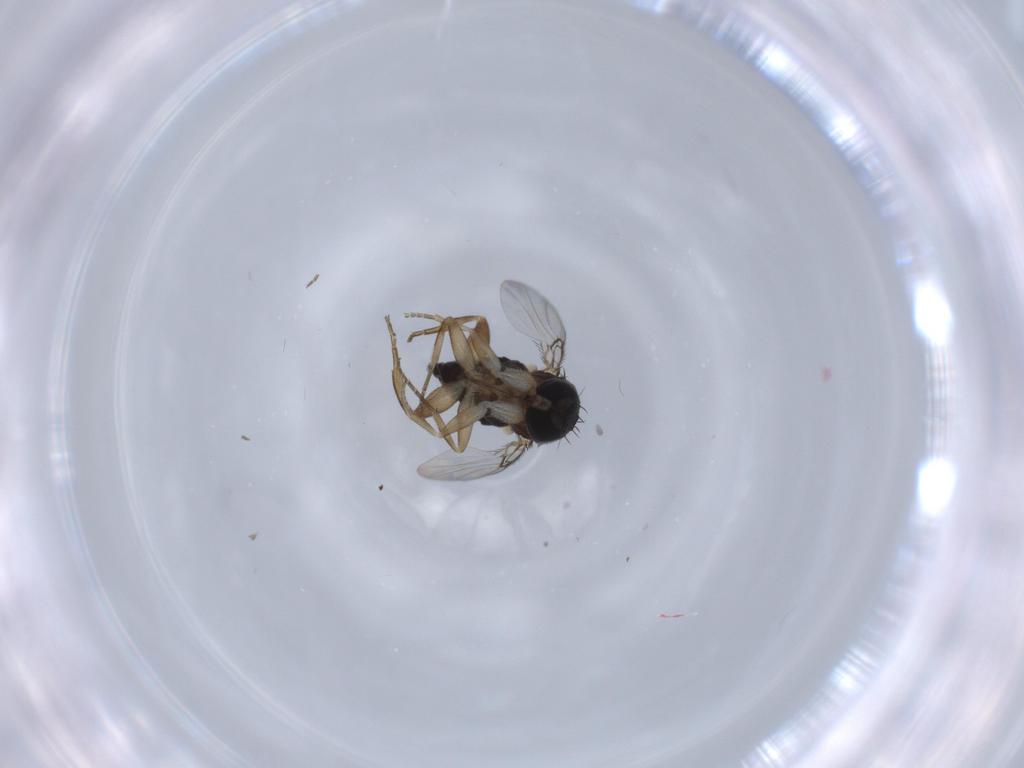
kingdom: Animalia
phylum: Arthropoda
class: Insecta
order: Diptera
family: Phoridae
